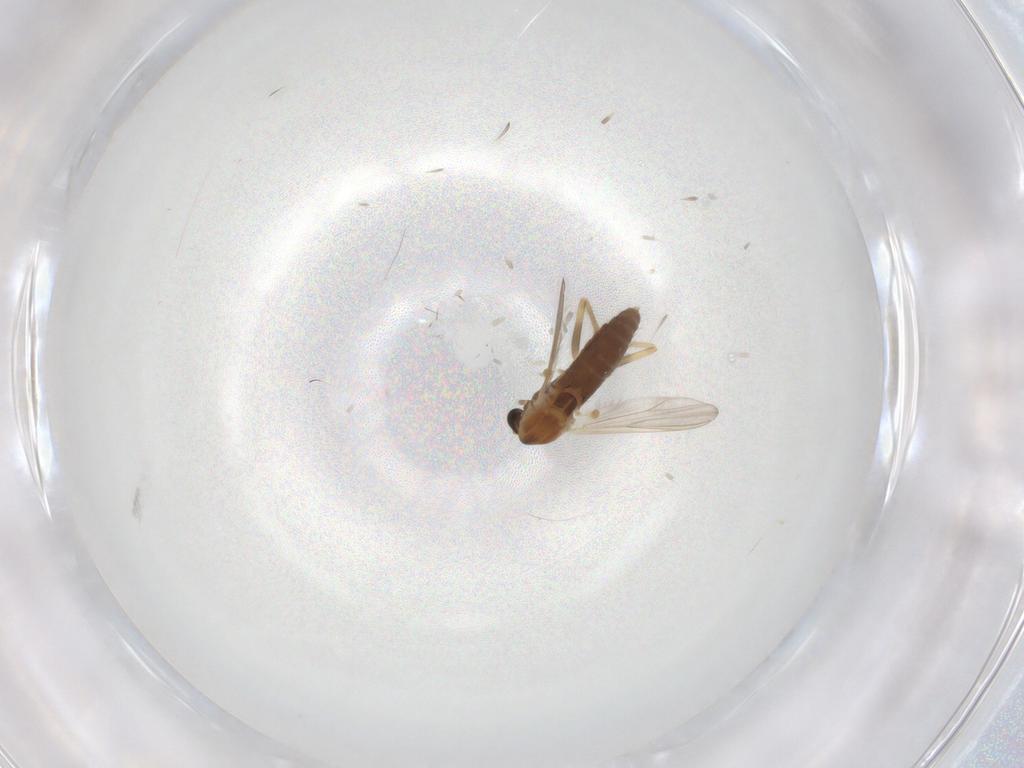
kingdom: Animalia
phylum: Arthropoda
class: Insecta
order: Diptera
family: Chironomidae
